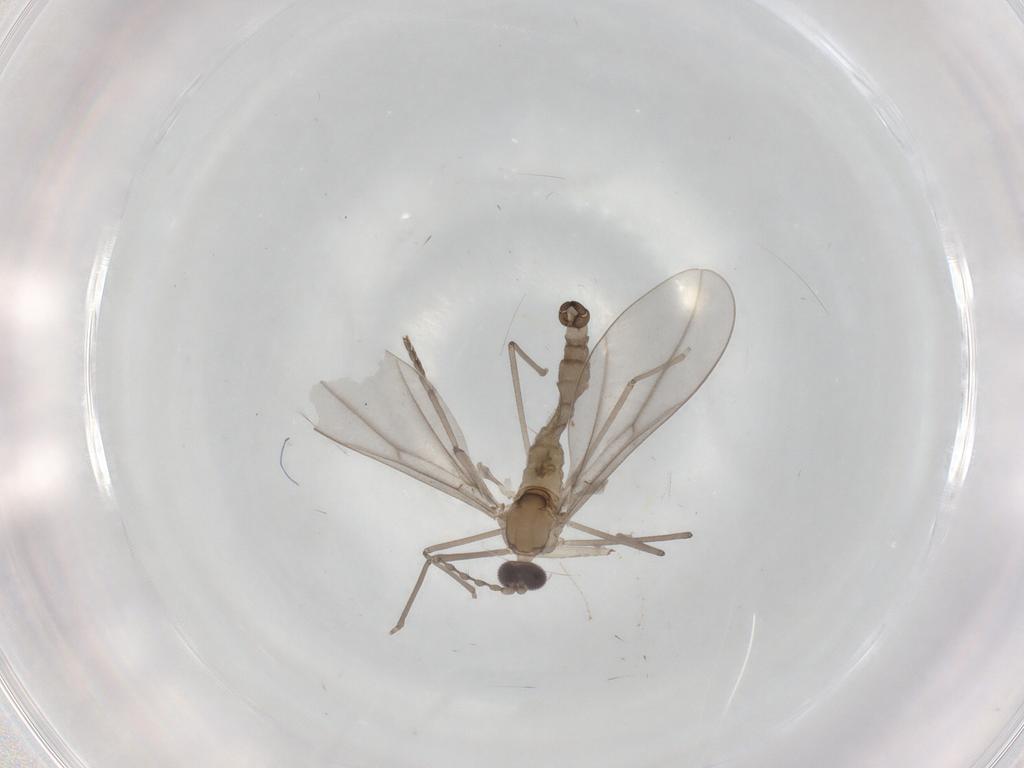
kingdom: Animalia
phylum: Arthropoda
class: Insecta
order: Diptera
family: Cecidomyiidae
